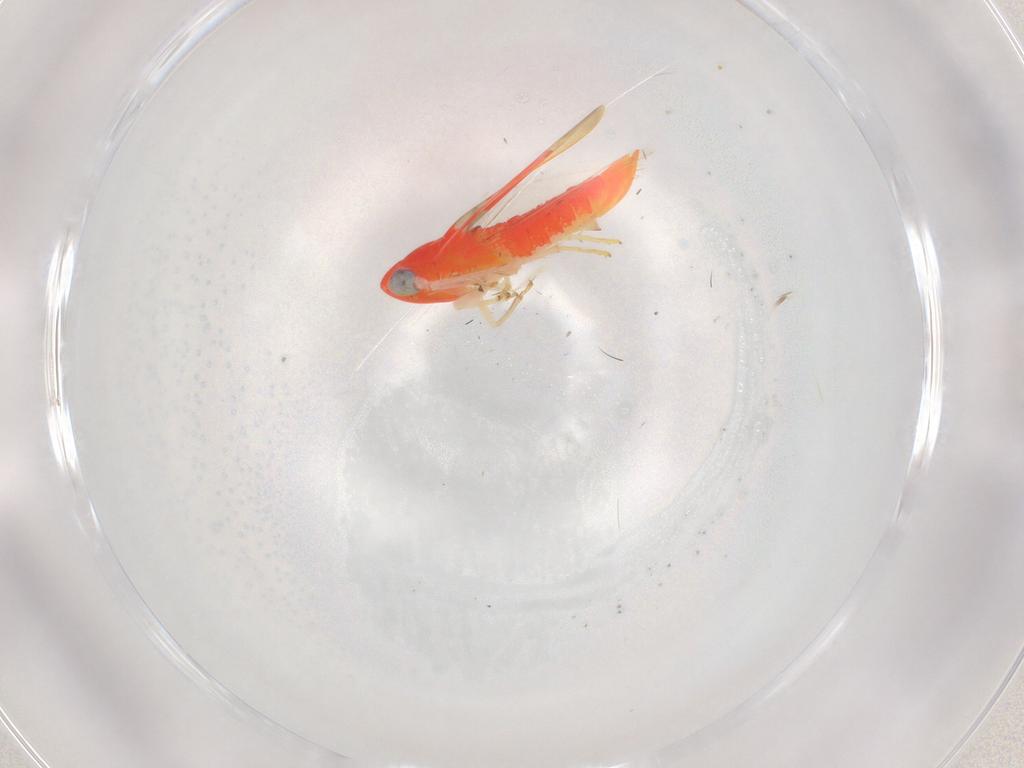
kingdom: Animalia
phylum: Arthropoda
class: Insecta
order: Hemiptera
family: Cicadellidae
